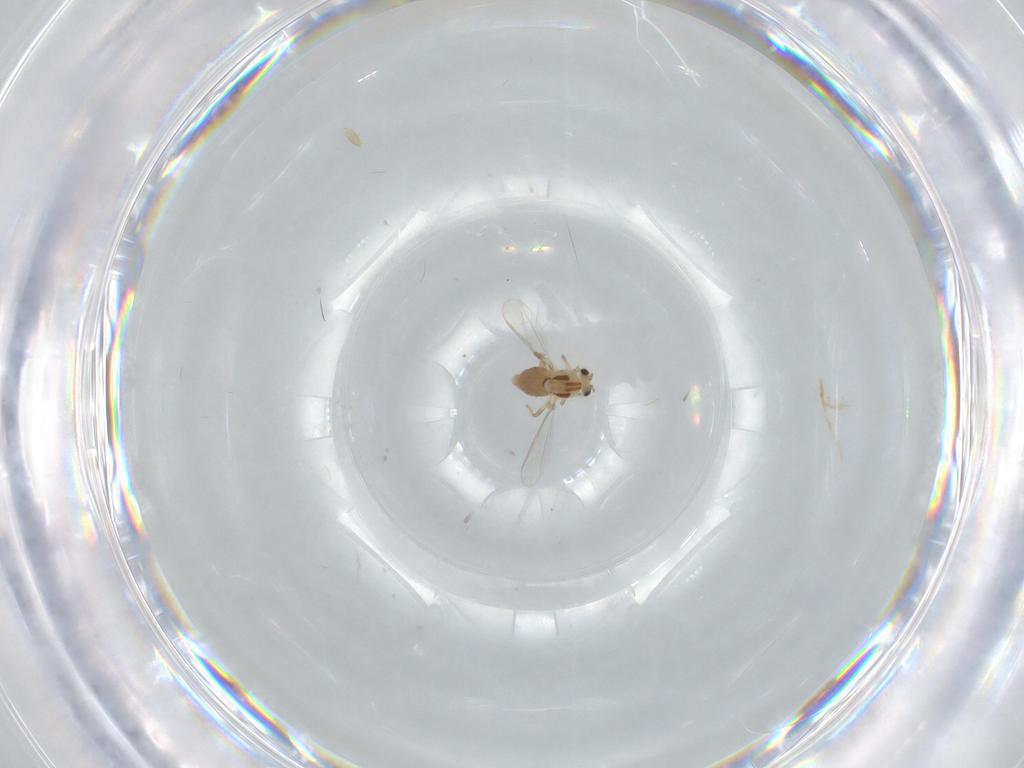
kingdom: Animalia
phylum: Arthropoda
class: Insecta
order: Diptera
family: Chironomidae
